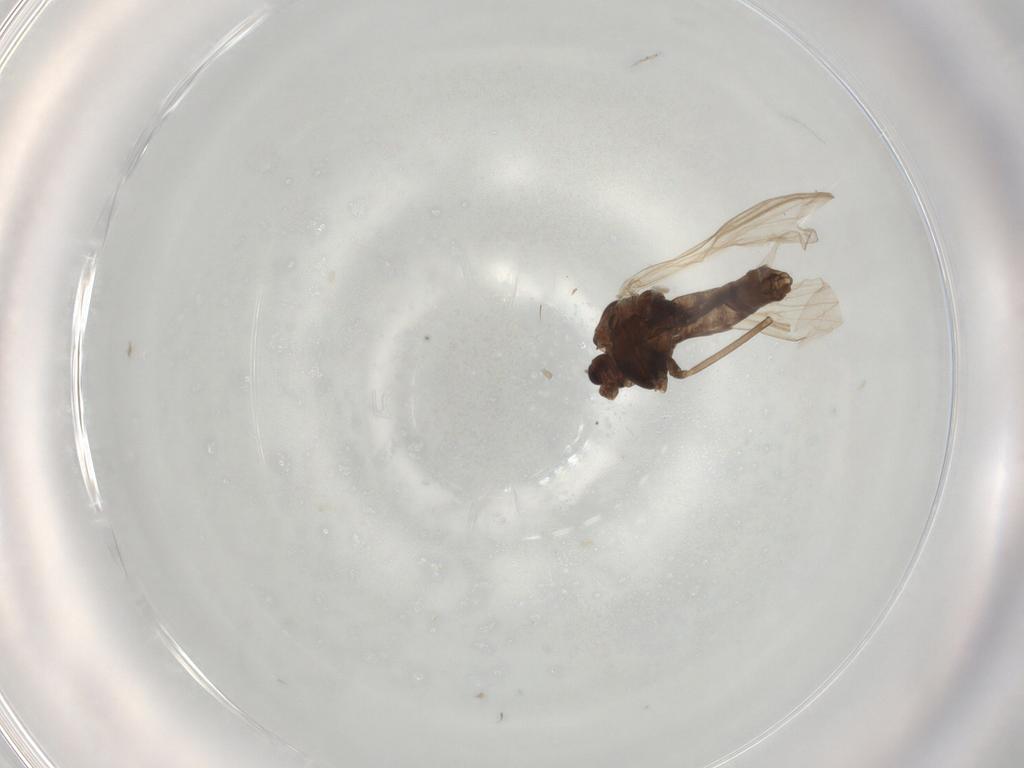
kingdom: Animalia
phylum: Arthropoda
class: Insecta
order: Diptera
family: Chironomidae
